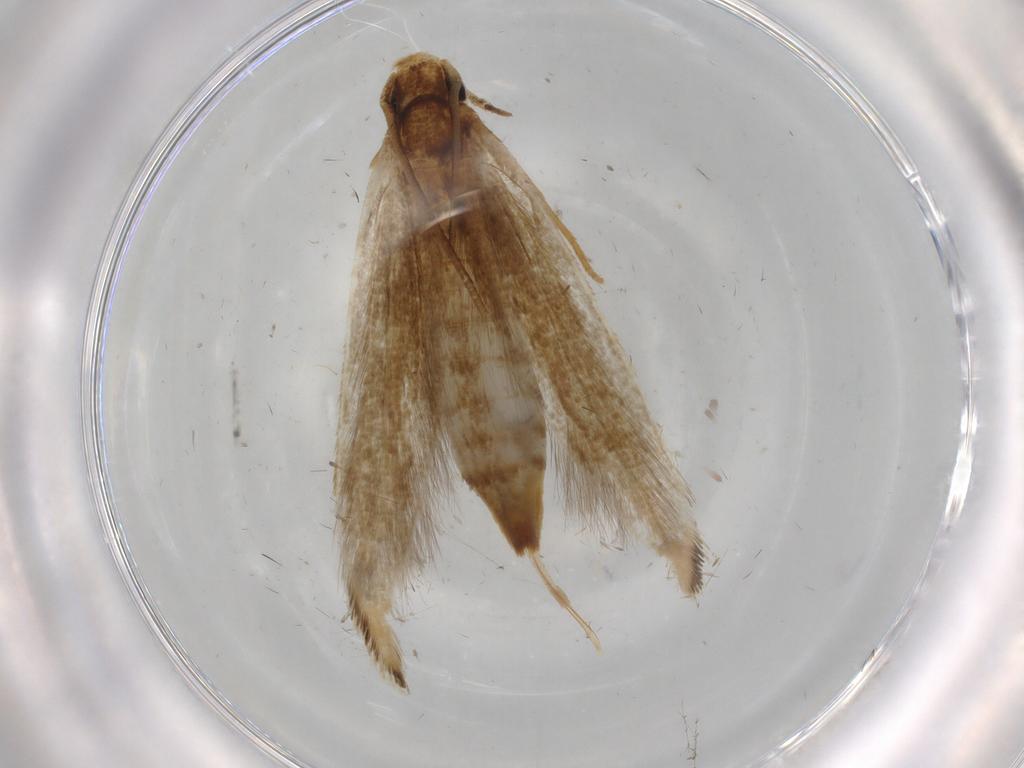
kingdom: Animalia
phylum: Arthropoda
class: Insecta
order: Lepidoptera
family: Tineidae
